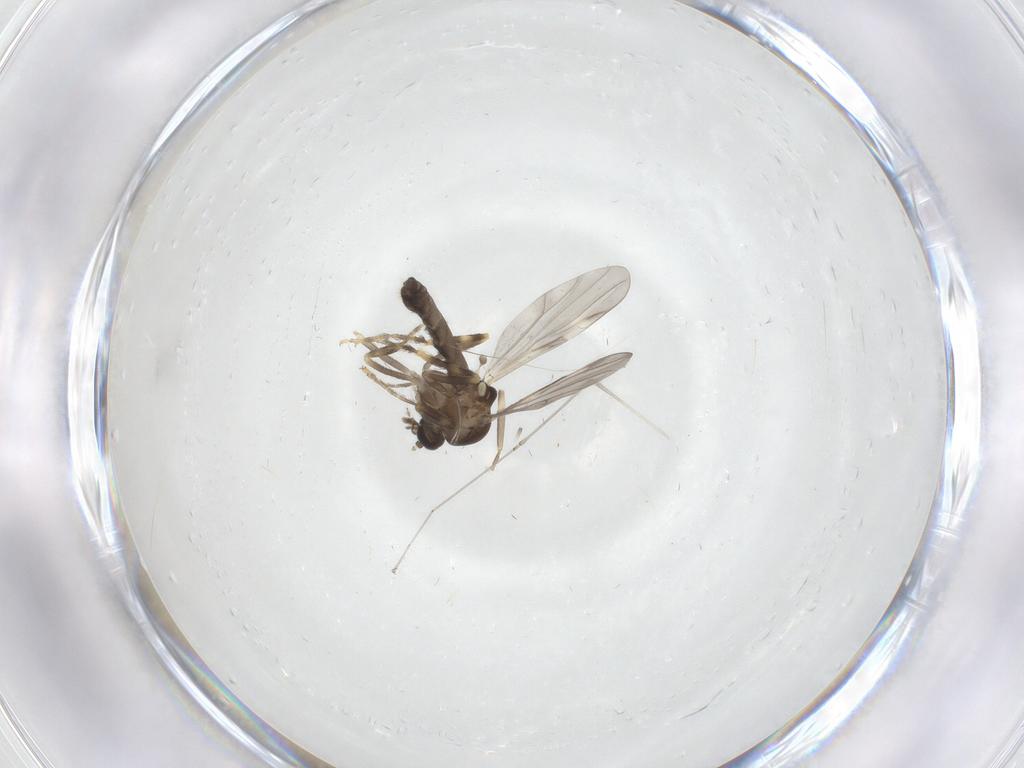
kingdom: Animalia
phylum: Arthropoda
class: Insecta
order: Diptera
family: Ceratopogonidae
